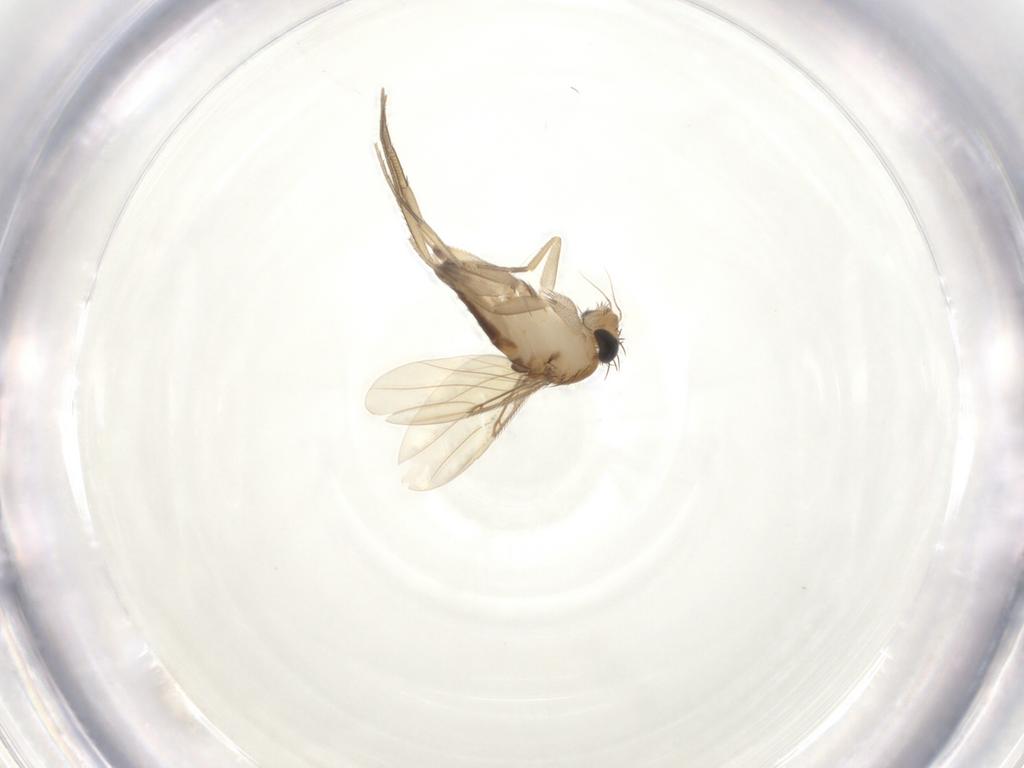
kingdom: Animalia
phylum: Arthropoda
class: Insecta
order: Diptera
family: Phoridae
